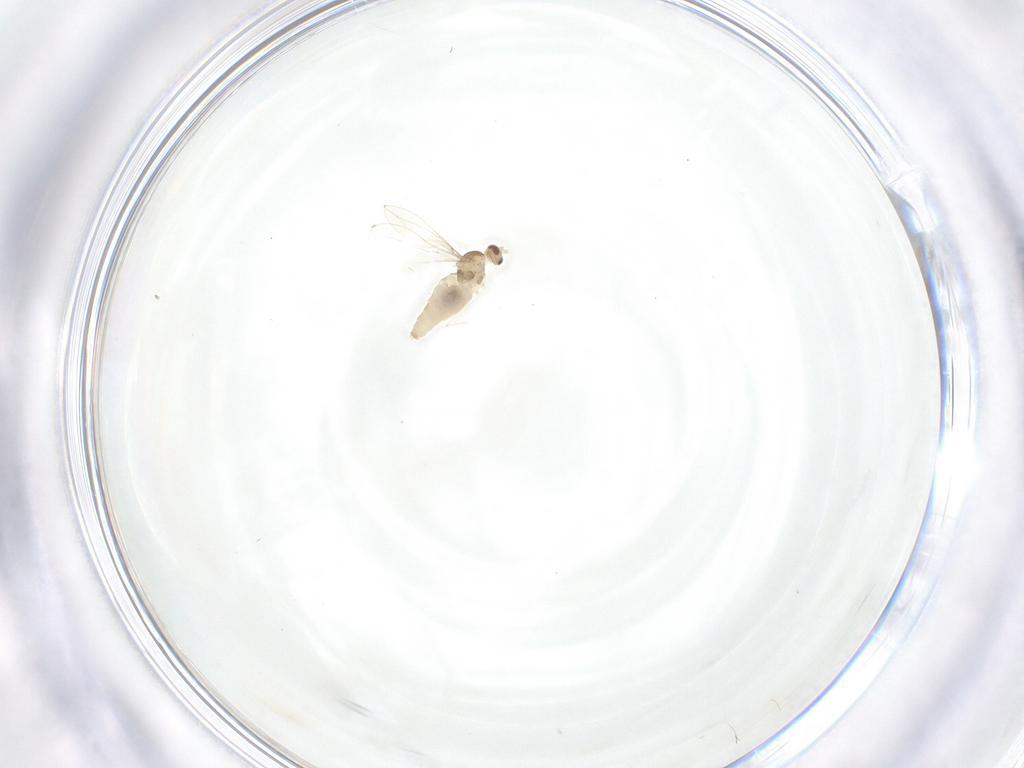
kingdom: Animalia
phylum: Arthropoda
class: Insecta
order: Diptera
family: Cecidomyiidae
